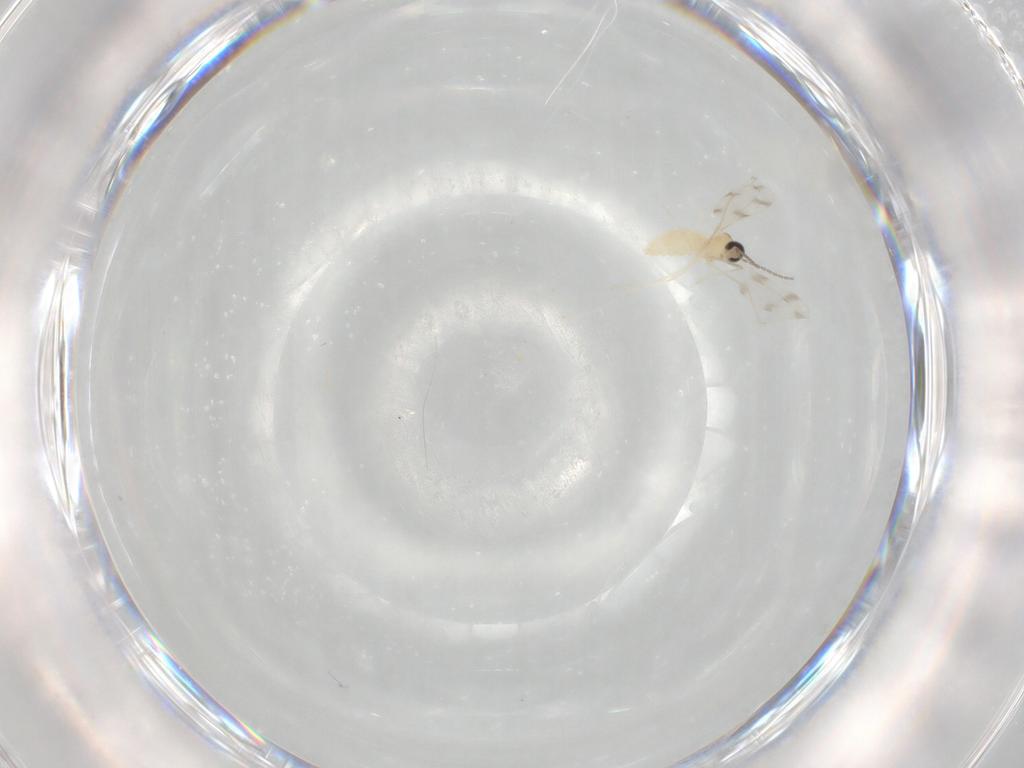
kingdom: Animalia
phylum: Arthropoda
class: Insecta
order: Diptera
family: Cecidomyiidae
